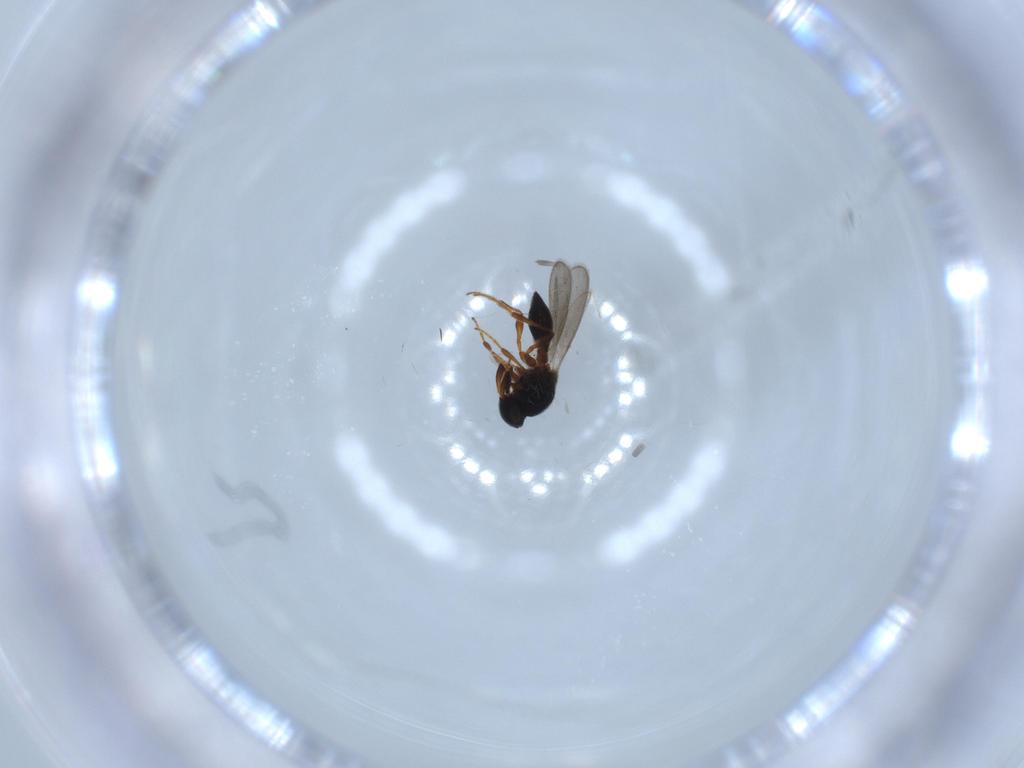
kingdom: Animalia
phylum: Arthropoda
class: Insecta
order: Hymenoptera
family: Platygastridae
